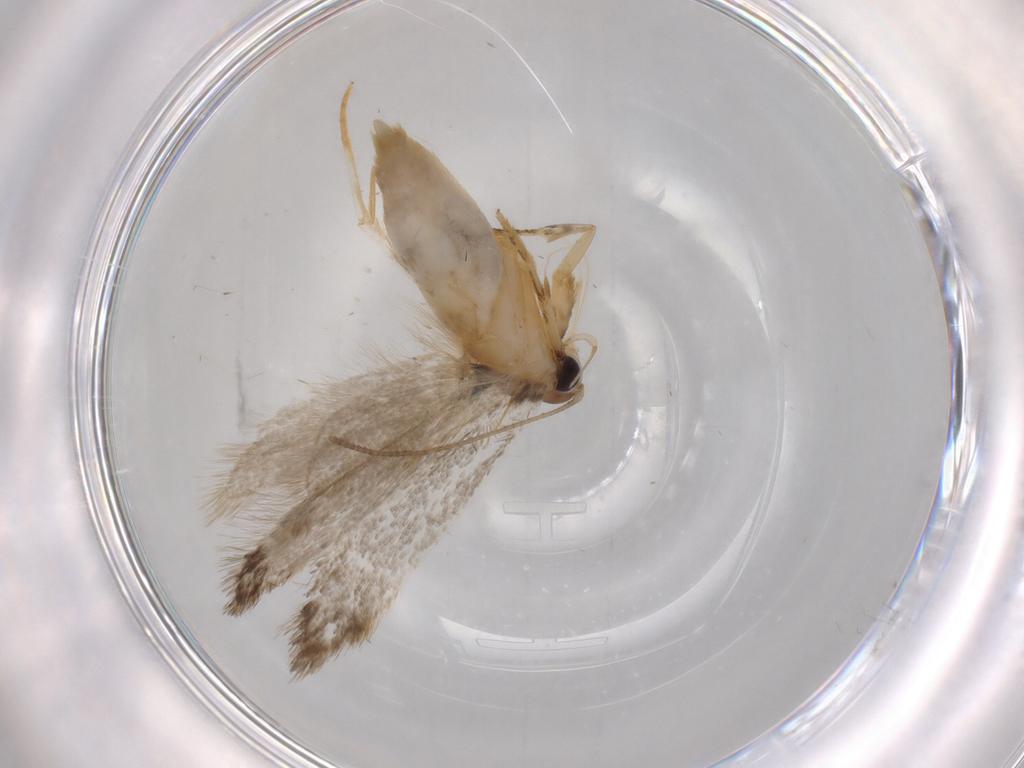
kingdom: Animalia
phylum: Arthropoda
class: Insecta
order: Lepidoptera
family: Autostichidae
